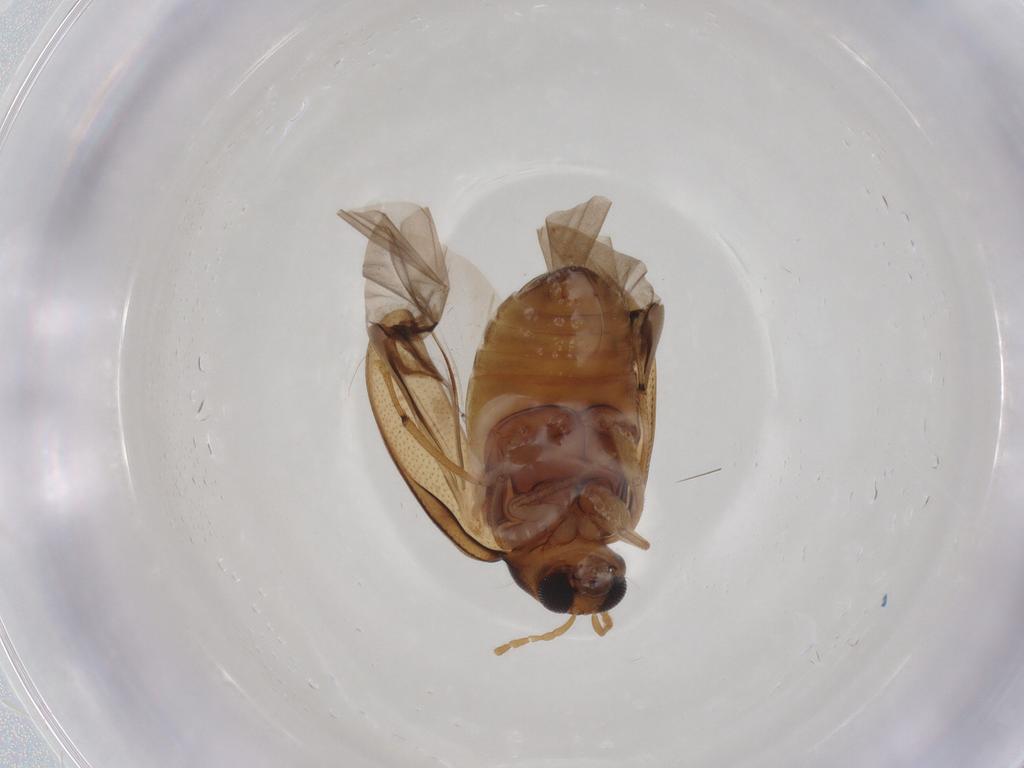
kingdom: Animalia
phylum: Arthropoda
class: Insecta
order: Coleoptera
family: Chrysomelidae
